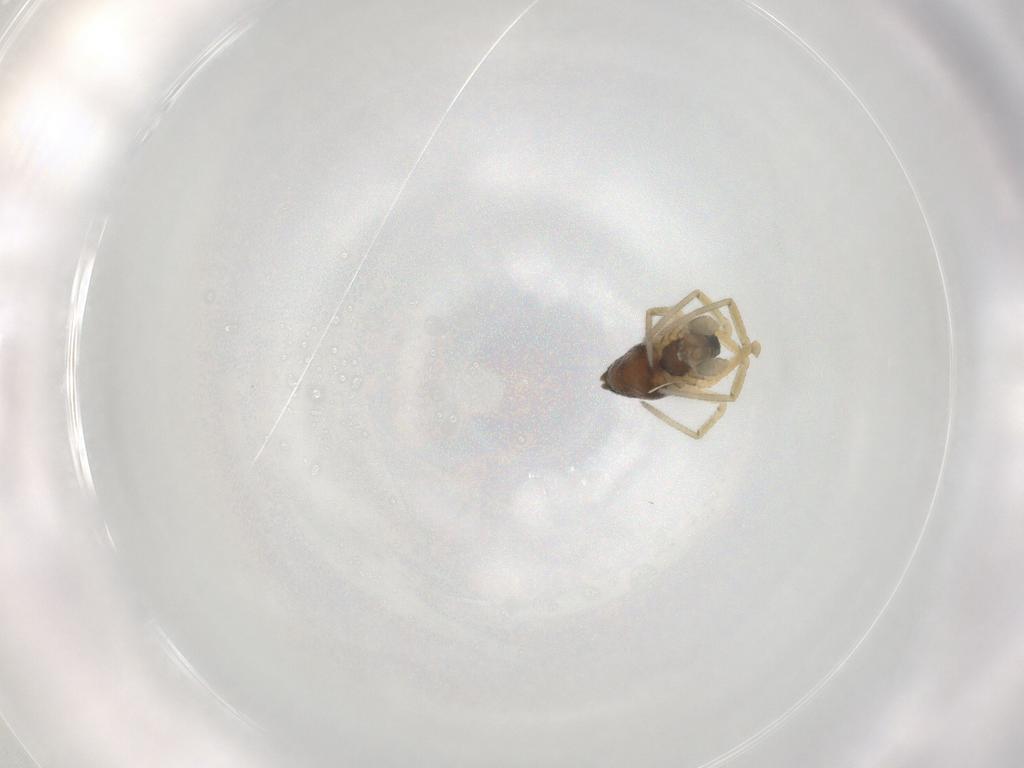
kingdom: Animalia
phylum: Arthropoda
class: Arachnida
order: Araneae
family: Linyphiidae
